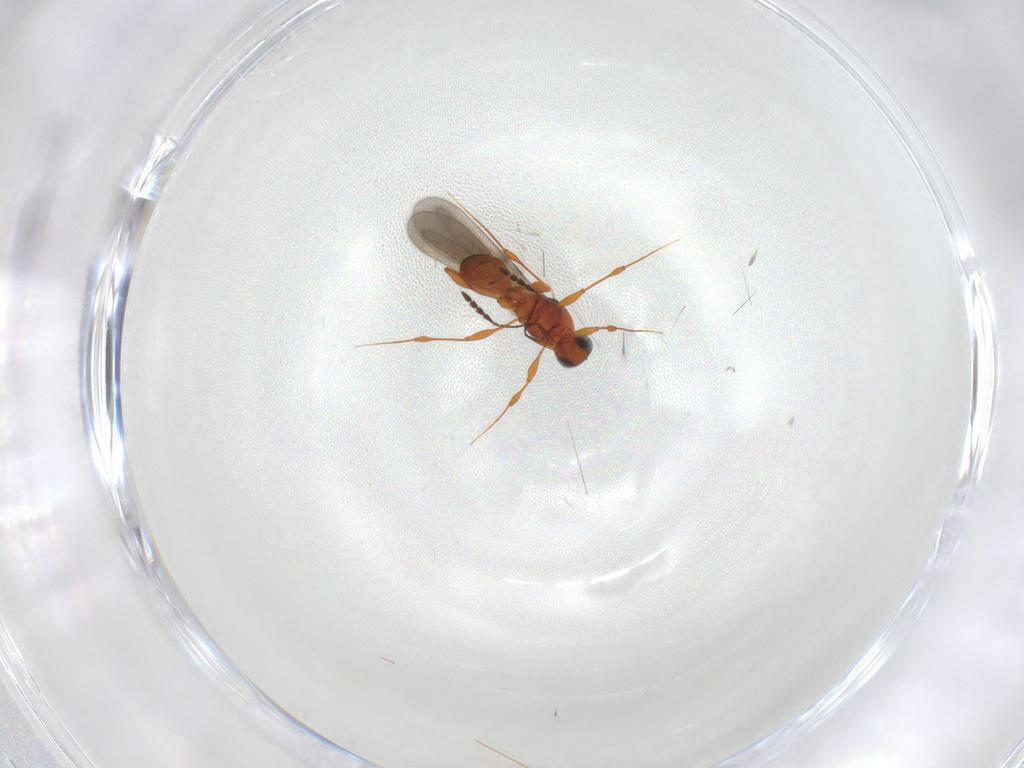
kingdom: Animalia
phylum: Arthropoda
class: Insecta
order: Hymenoptera
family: Platygastridae
